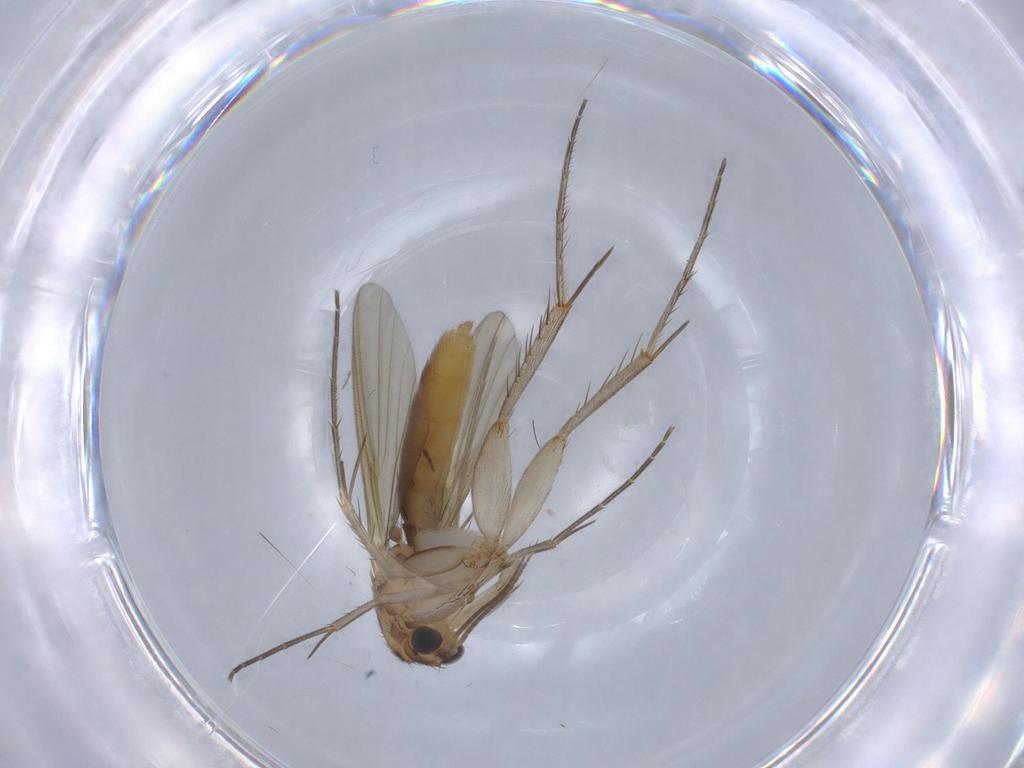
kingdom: Animalia
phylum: Arthropoda
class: Insecta
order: Diptera
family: Mycetophilidae
